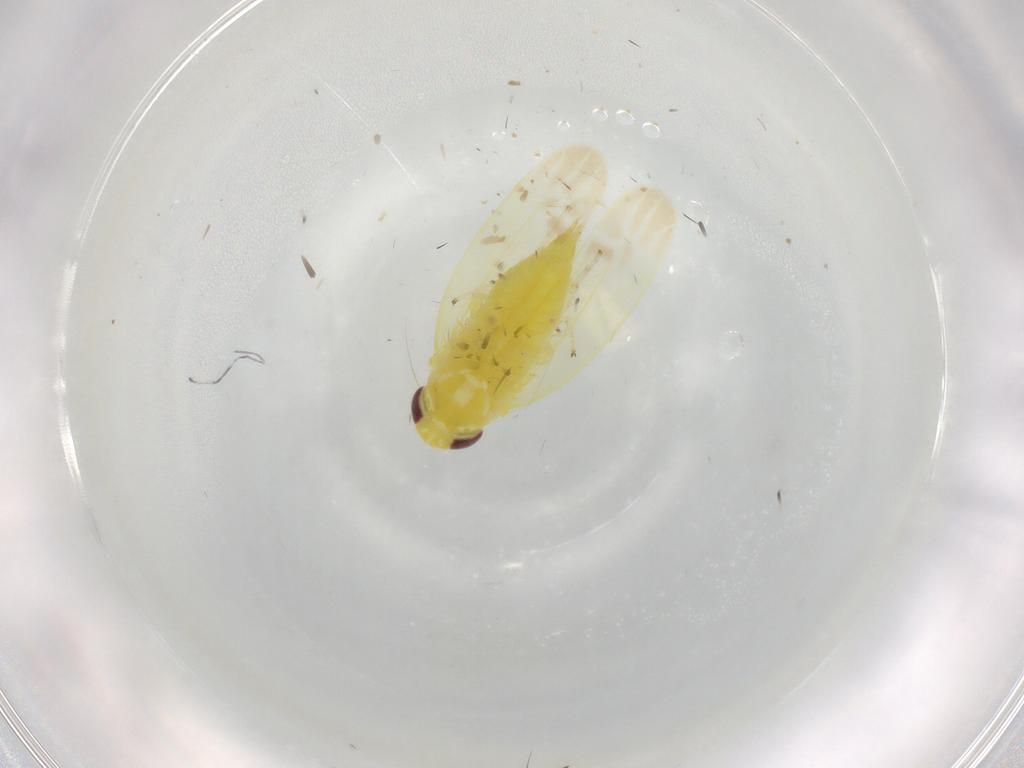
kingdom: Animalia
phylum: Arthropoda
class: Insecta
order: Hemiptera
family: Cicadellidae
